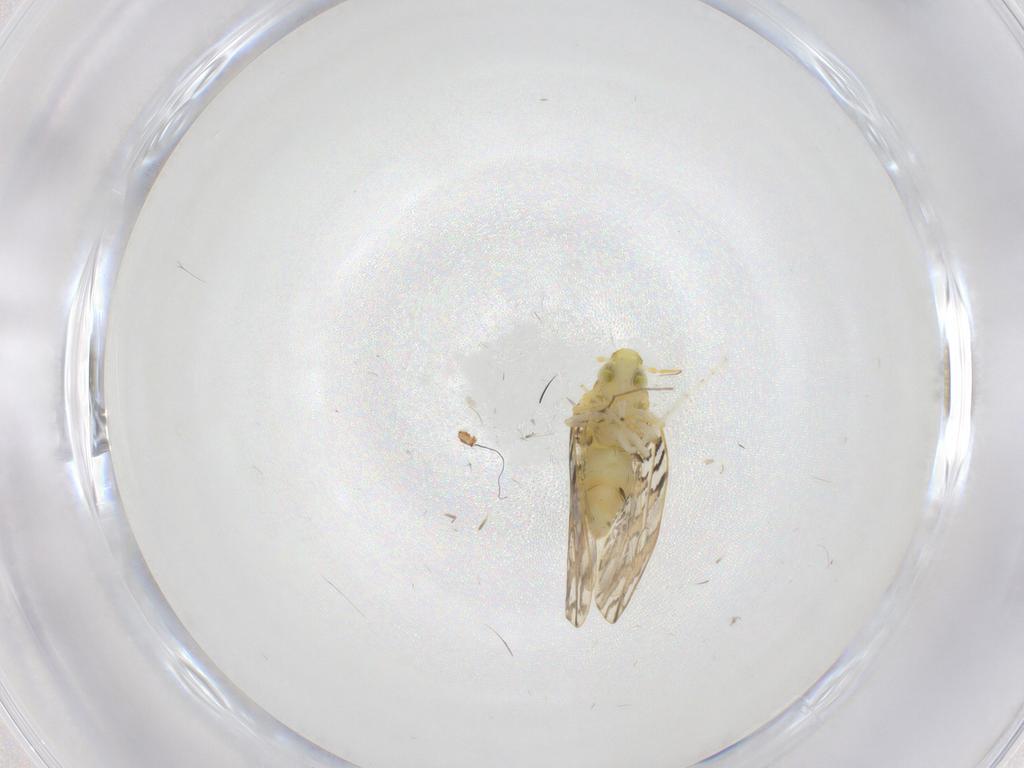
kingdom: Animalia
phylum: Arthropoda
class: Insecta
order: Hemiptera
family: Aleyrodidae
